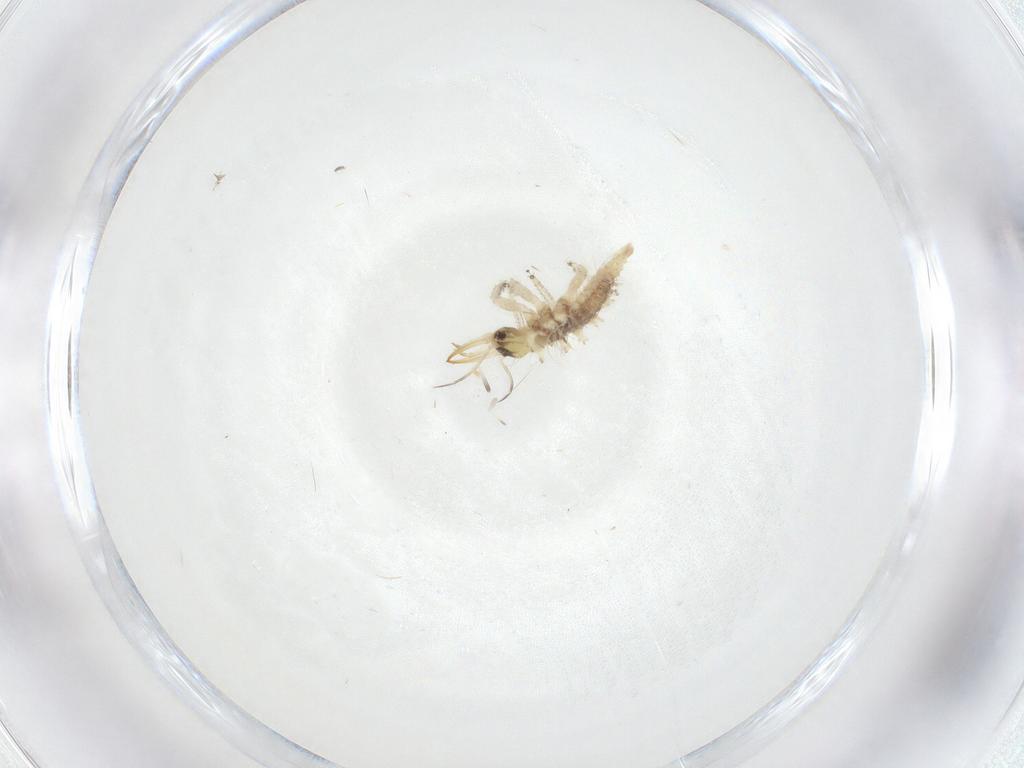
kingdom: Animalia
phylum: Arthropoda
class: Insecta
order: Neuroptera
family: Chrysopidae
